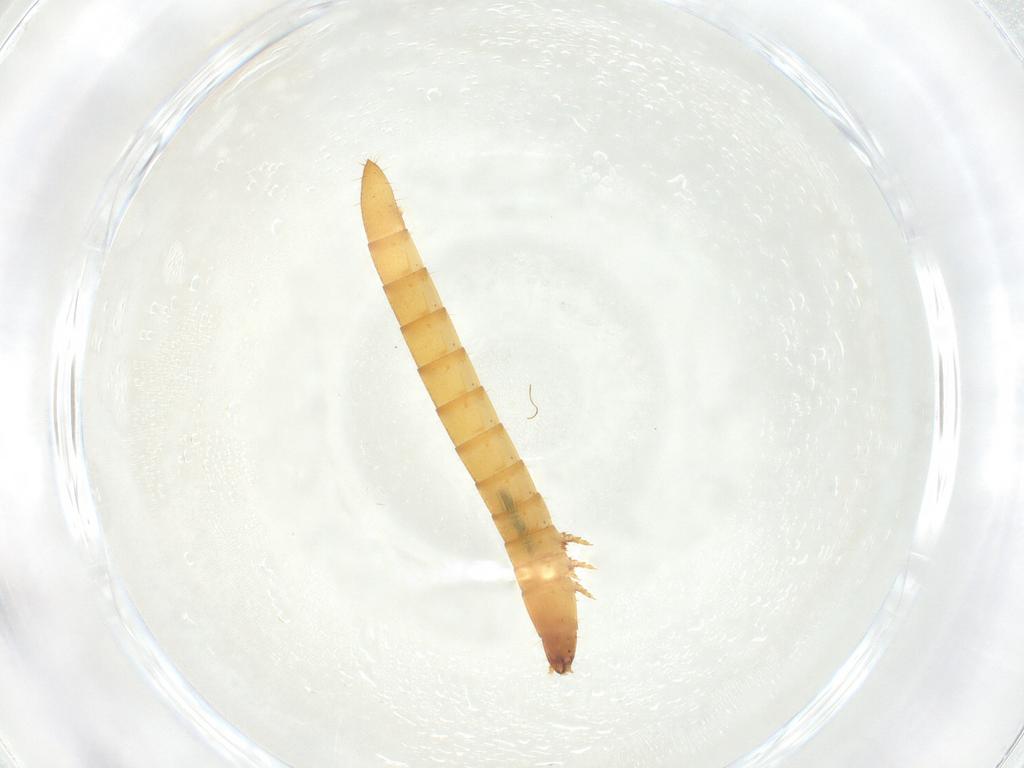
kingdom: Animalia
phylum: Arthropoda
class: Insecta
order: Coleoptera
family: Elateridae
